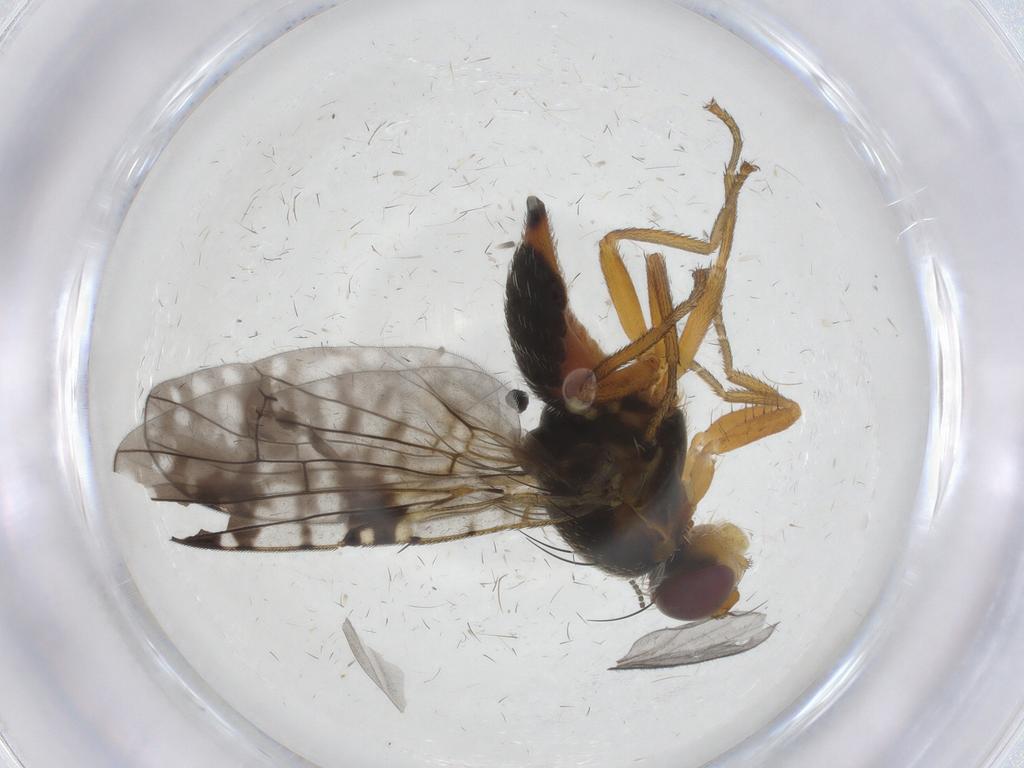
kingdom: Animalia
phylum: Arthropoda
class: Insecta
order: Diptera
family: Tephritidae
